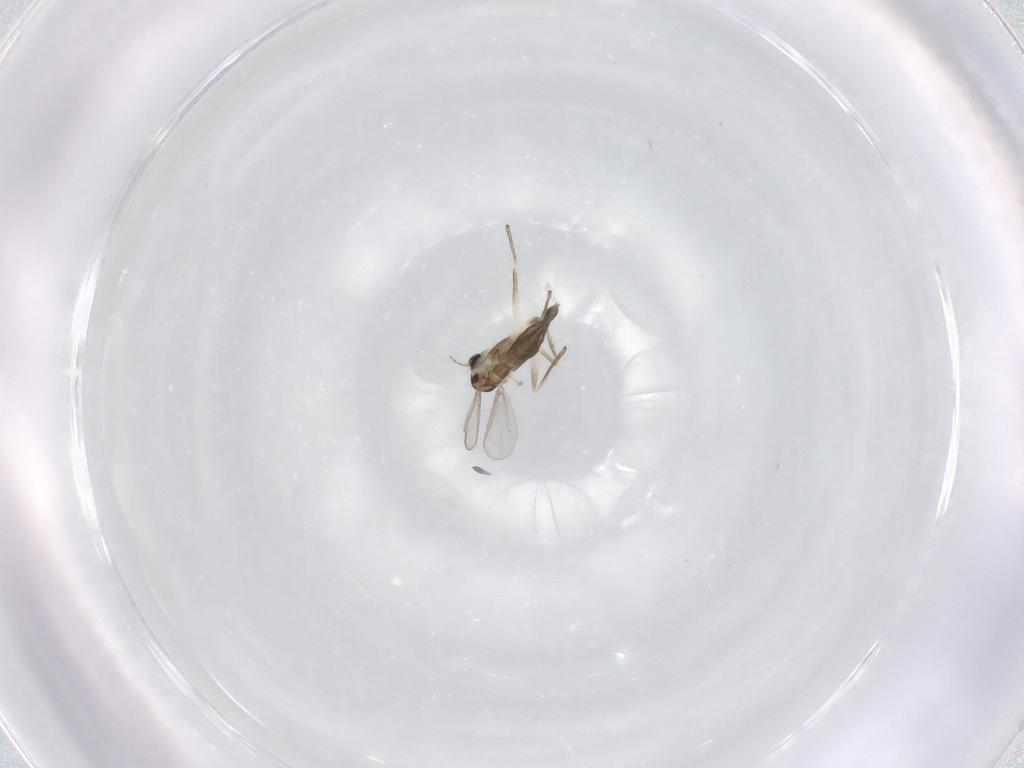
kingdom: Animalia
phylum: Arthropoda
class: Insecta
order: Diptera
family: Chironomidae
